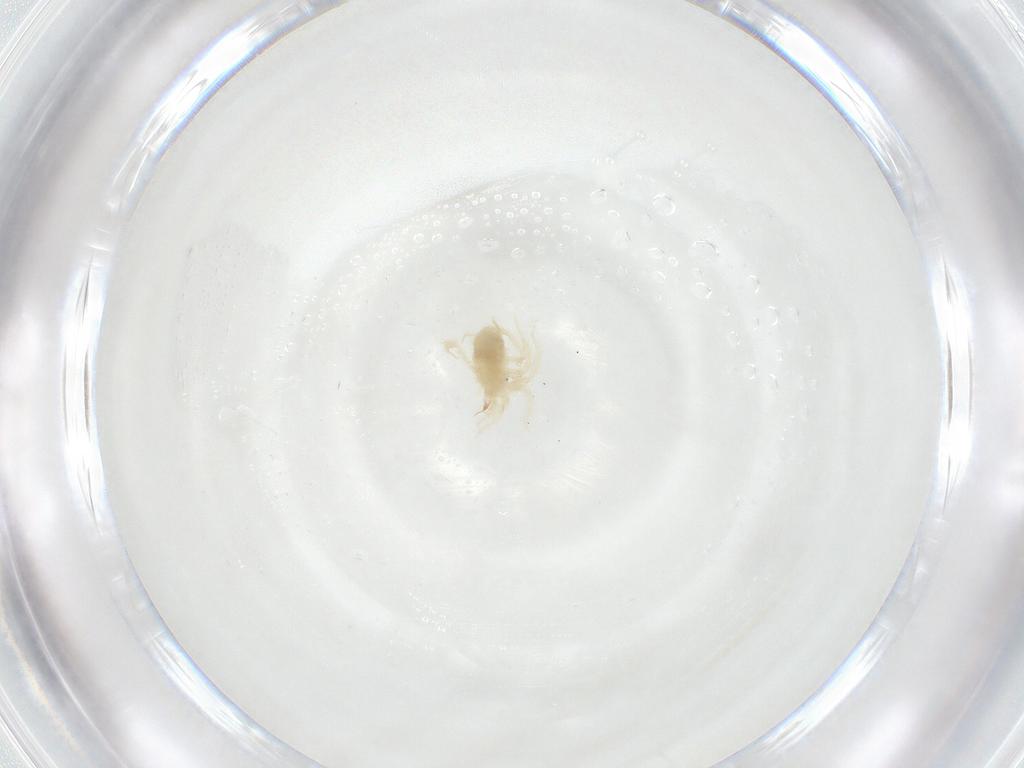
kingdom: Animalia
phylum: Arthropoda
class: Arachnida
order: Trombidiformes
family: Anystidae
